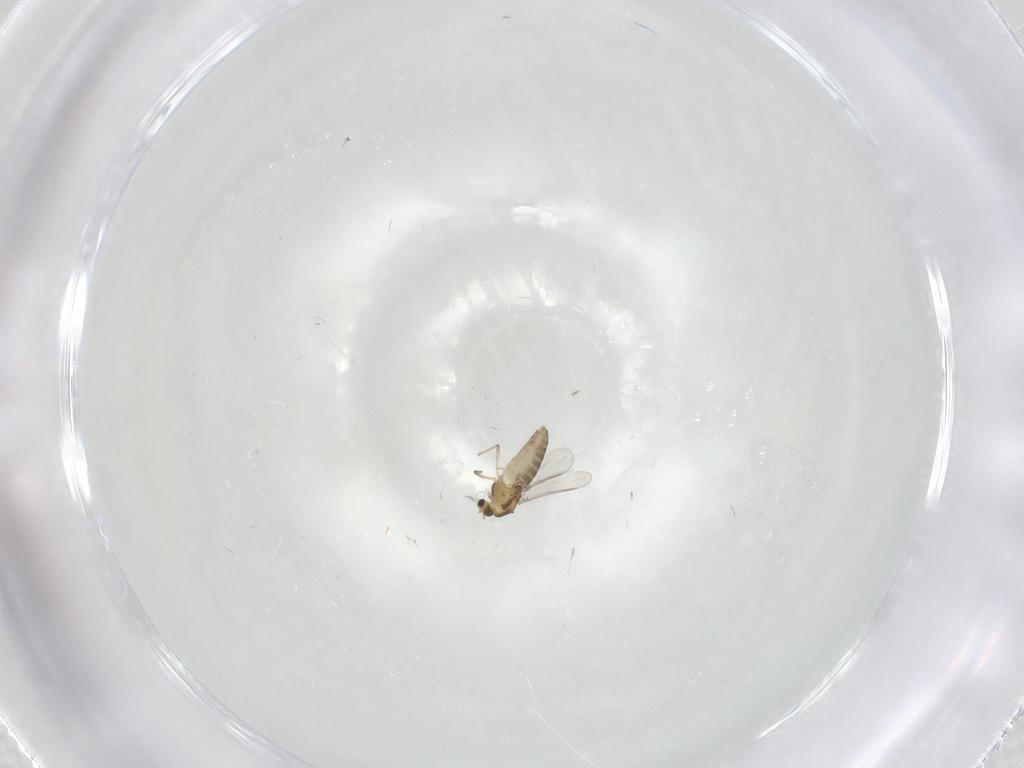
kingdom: Animalia
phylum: Arthropoda
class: Insecta
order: Diptera
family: Chironomidae
